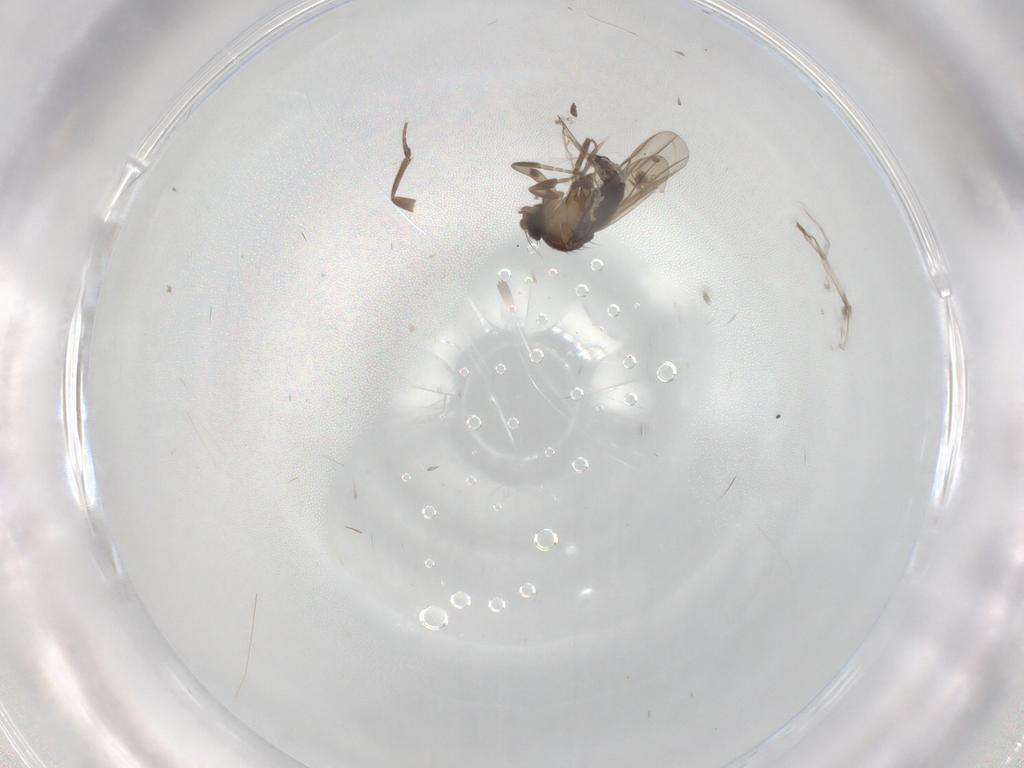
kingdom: Animalia
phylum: Arthropoda
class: Insecta
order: Diptera
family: Phoridae
